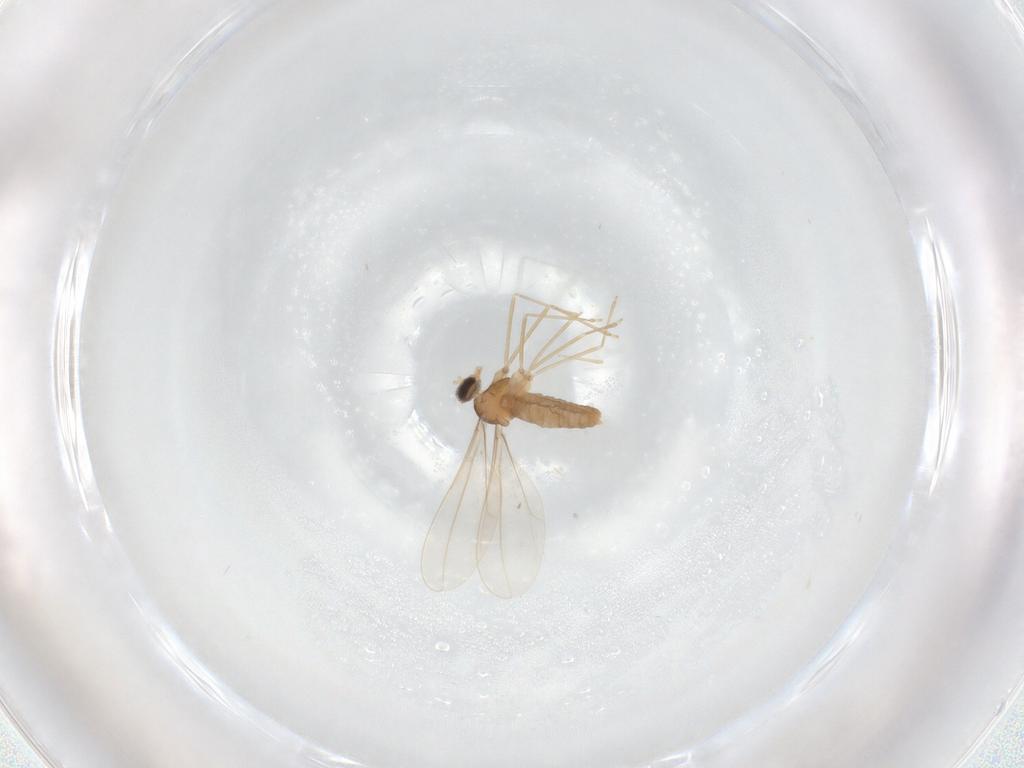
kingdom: Animalia
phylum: Arthropoda
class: Insecta
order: Diptera
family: Cecidomyiidae
